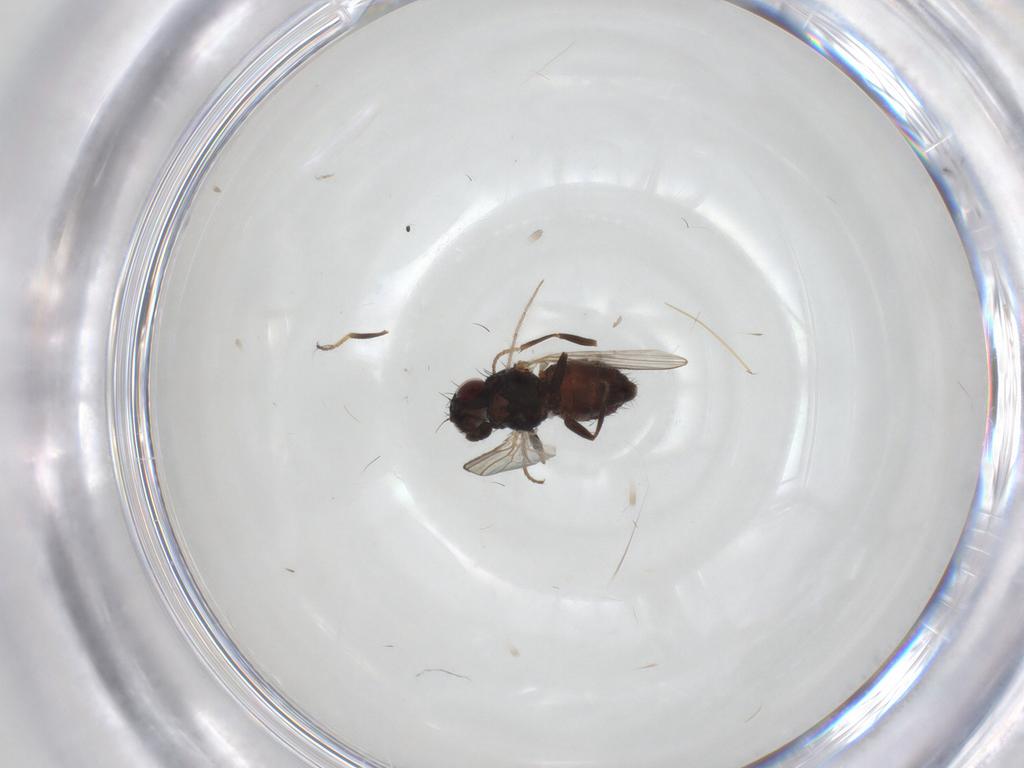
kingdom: Animalia
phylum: Arthropoda
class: Insecta
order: Diptera
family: Carnidae
